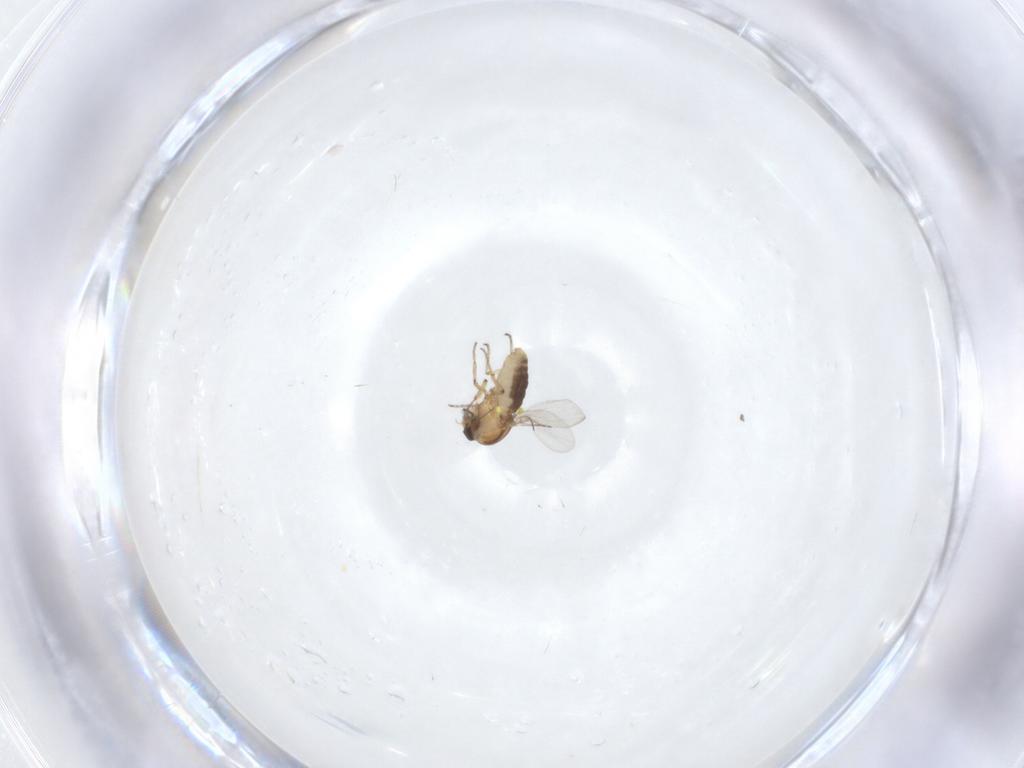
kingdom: Animalia
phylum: Arthropoda
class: Insecta
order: Diptera
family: Ceratopogonidae
